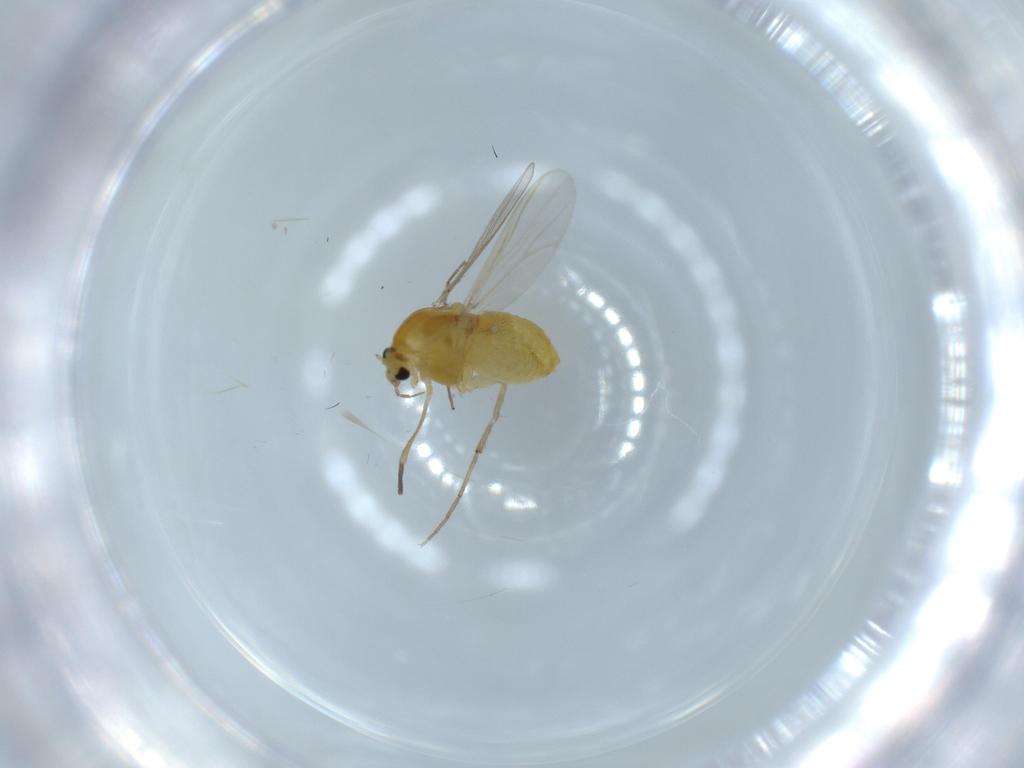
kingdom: Animalia
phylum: Arthropoda
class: Insecta
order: Diptera
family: Chironomidae
